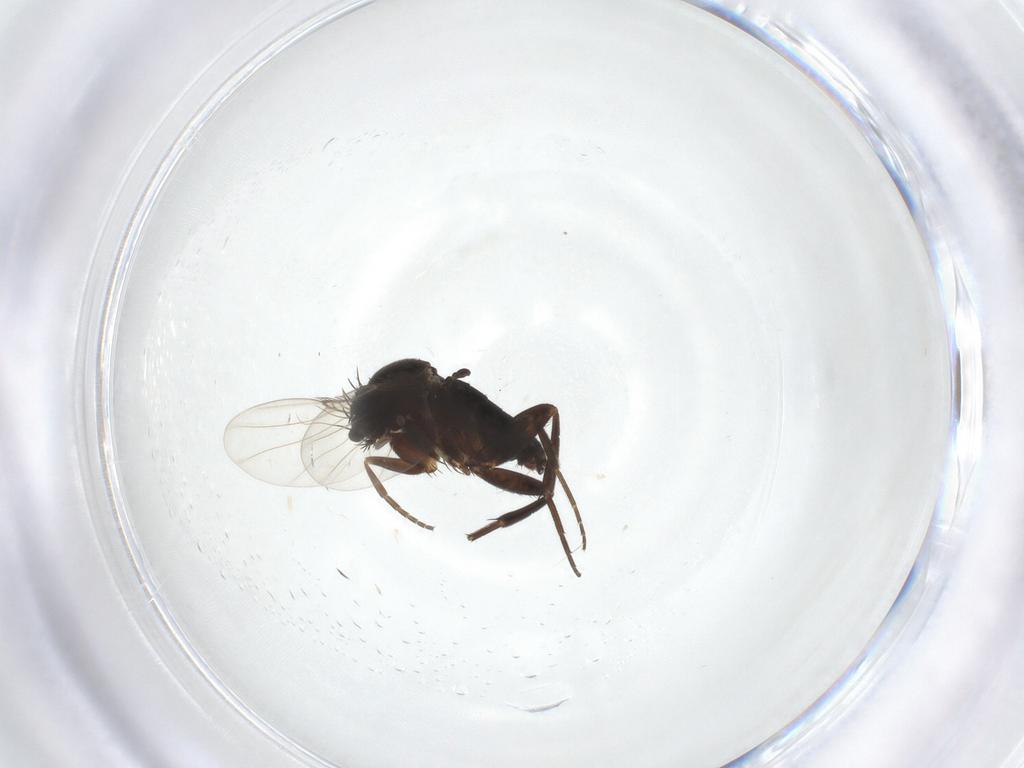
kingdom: Animalia
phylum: Arthropoda
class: Insecta
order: Diptera
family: Phoridae
